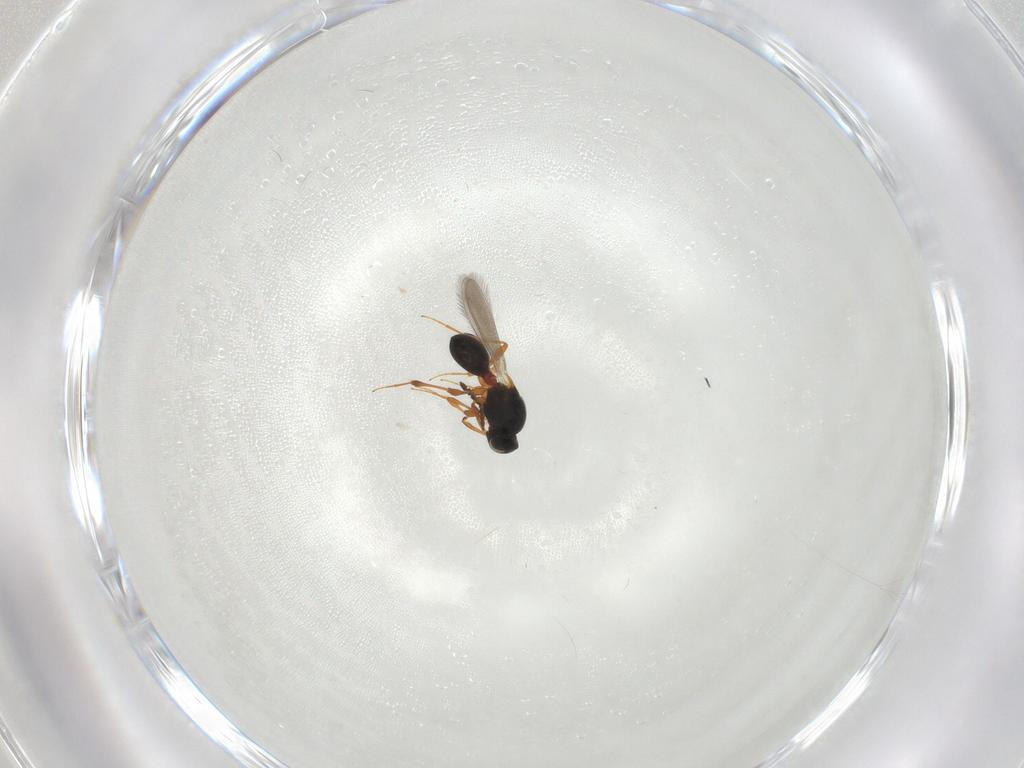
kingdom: Animalia
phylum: Arthropoda
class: Insecta
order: Hymenoptera
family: Platygastridae
